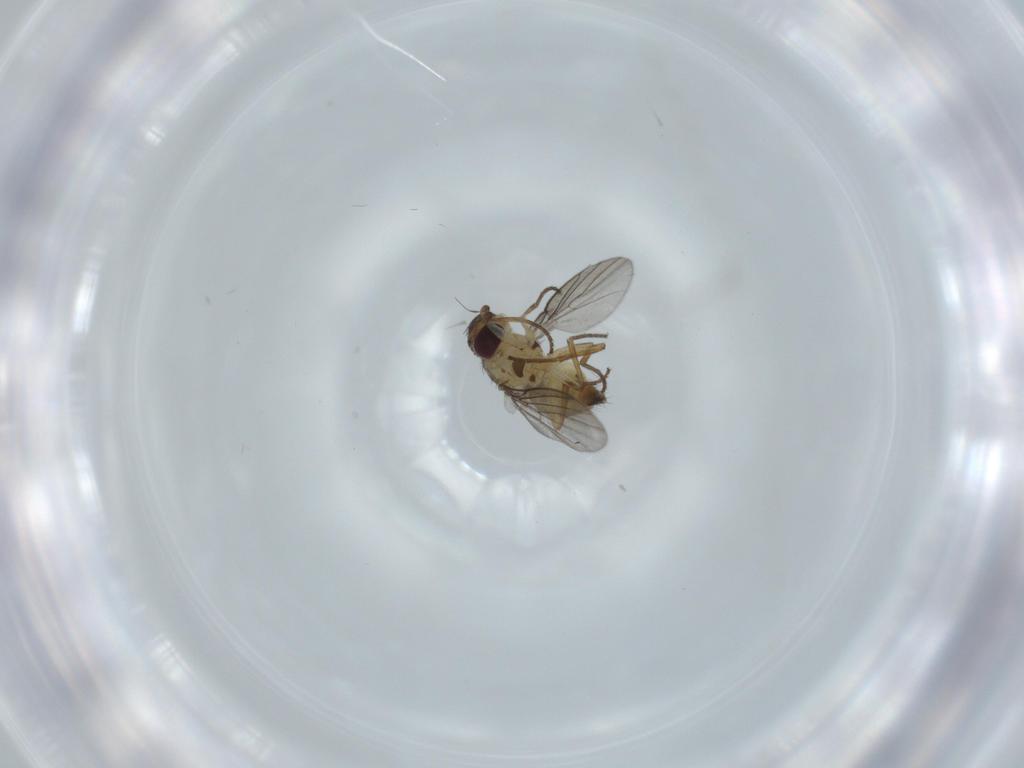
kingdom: Animalia
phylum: Arthropoda
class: Insecta
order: Diptera
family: Agromyzidae
